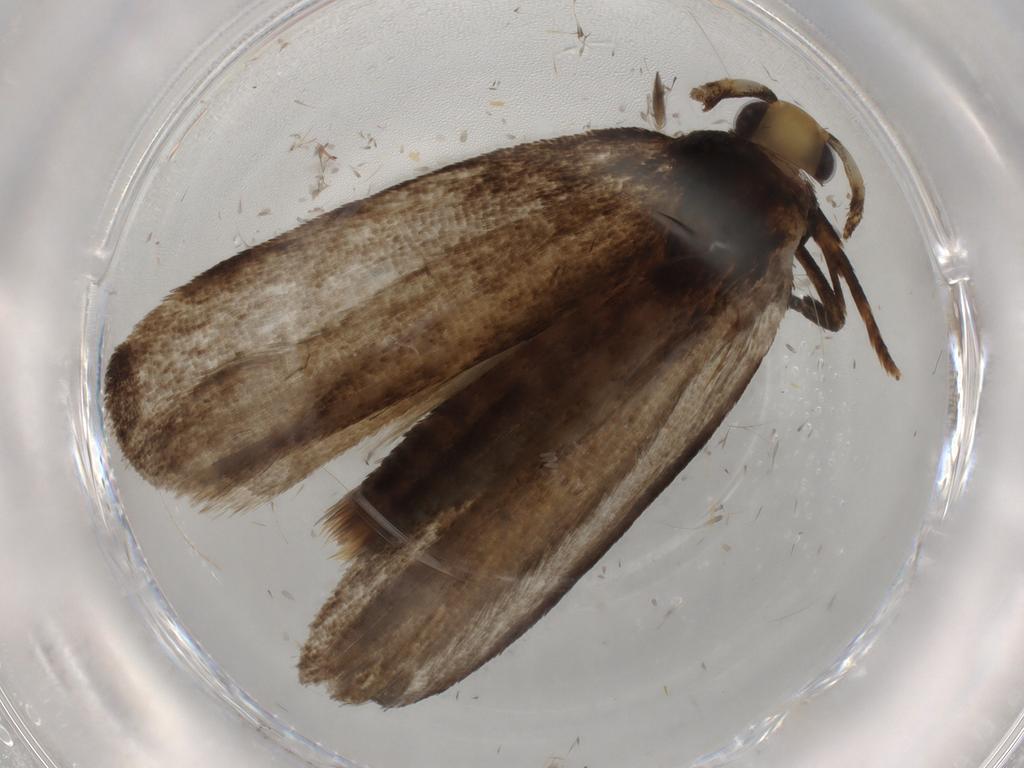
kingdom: Animalia
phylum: Arthropoda
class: Insecta
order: Lepidoptera
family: Autostichidae
